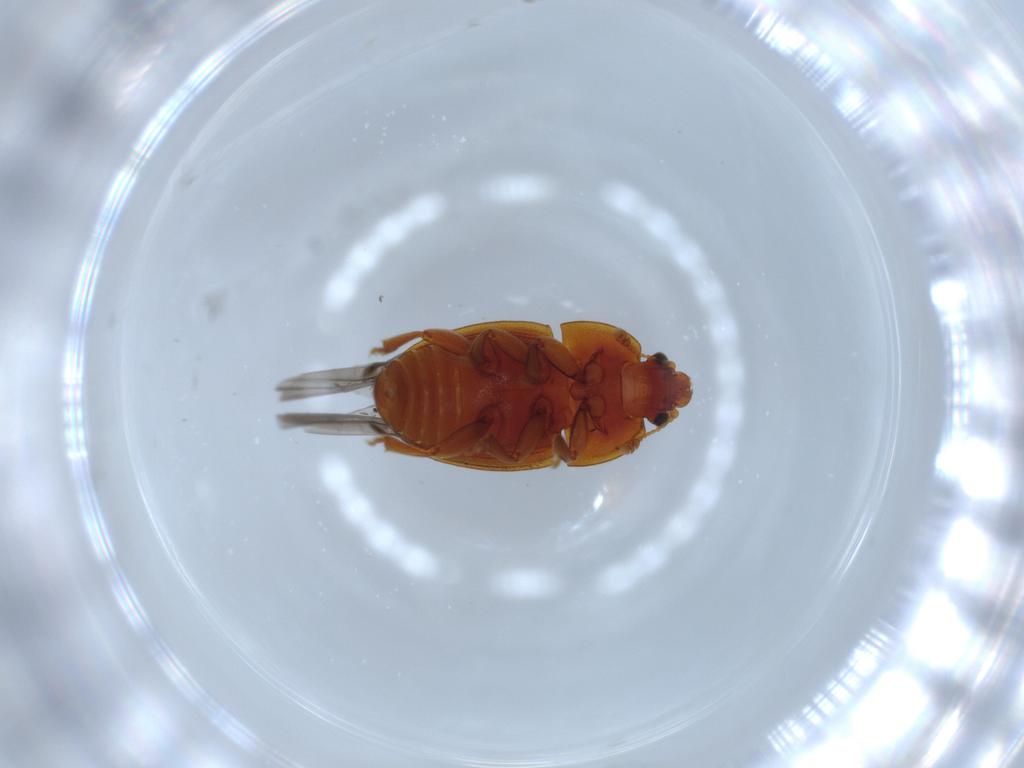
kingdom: Animalia
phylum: Arthropoda
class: Insecta
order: Coleoptera
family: Nitidulidae
